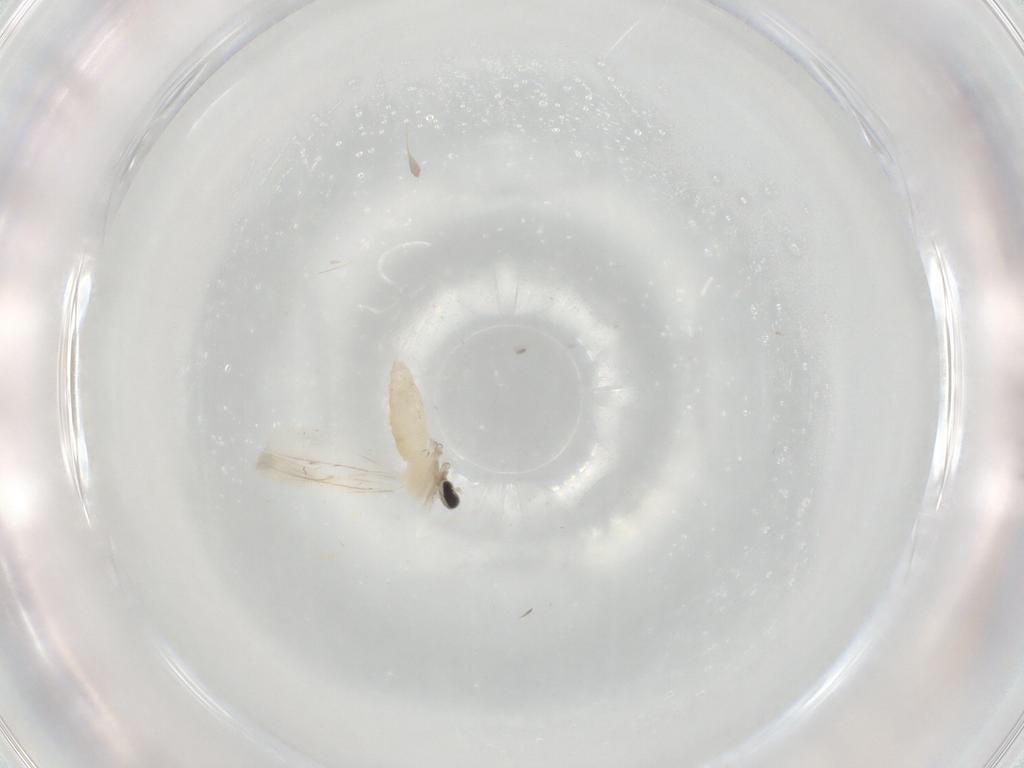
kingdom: Animalia
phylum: Arthropoda
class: Insecta
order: Diptera
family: Cecidomyiidae
